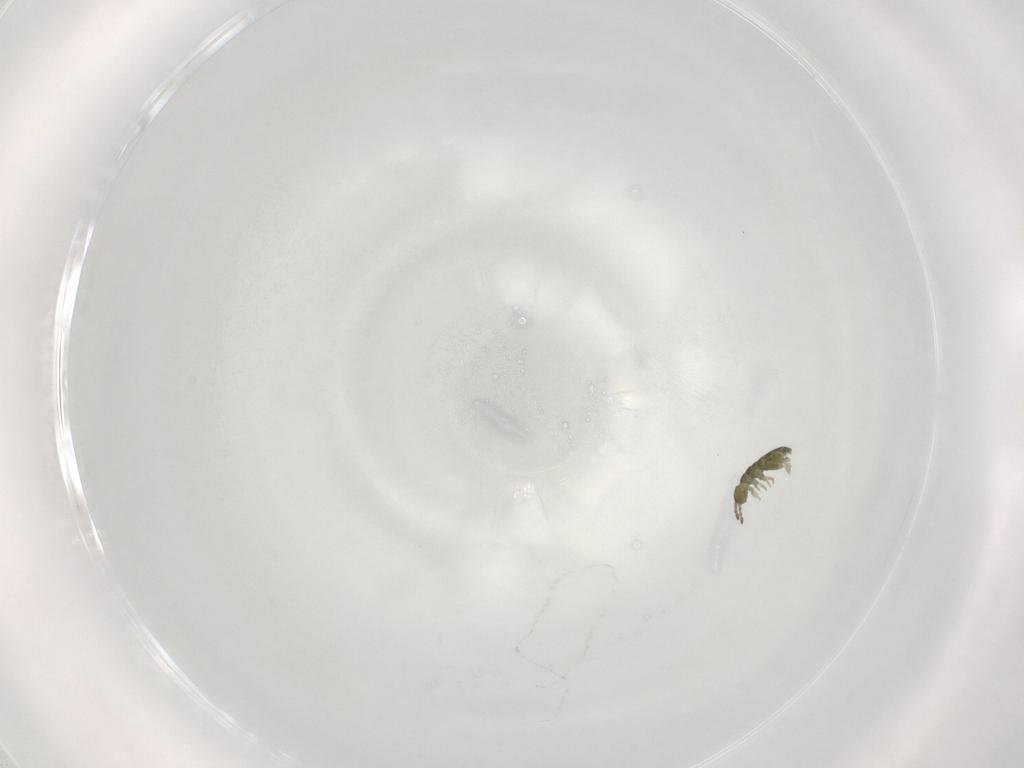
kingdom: Animalia
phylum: Arthropoda
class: Collembola
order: Entomobryomorpha
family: Isotomidae
